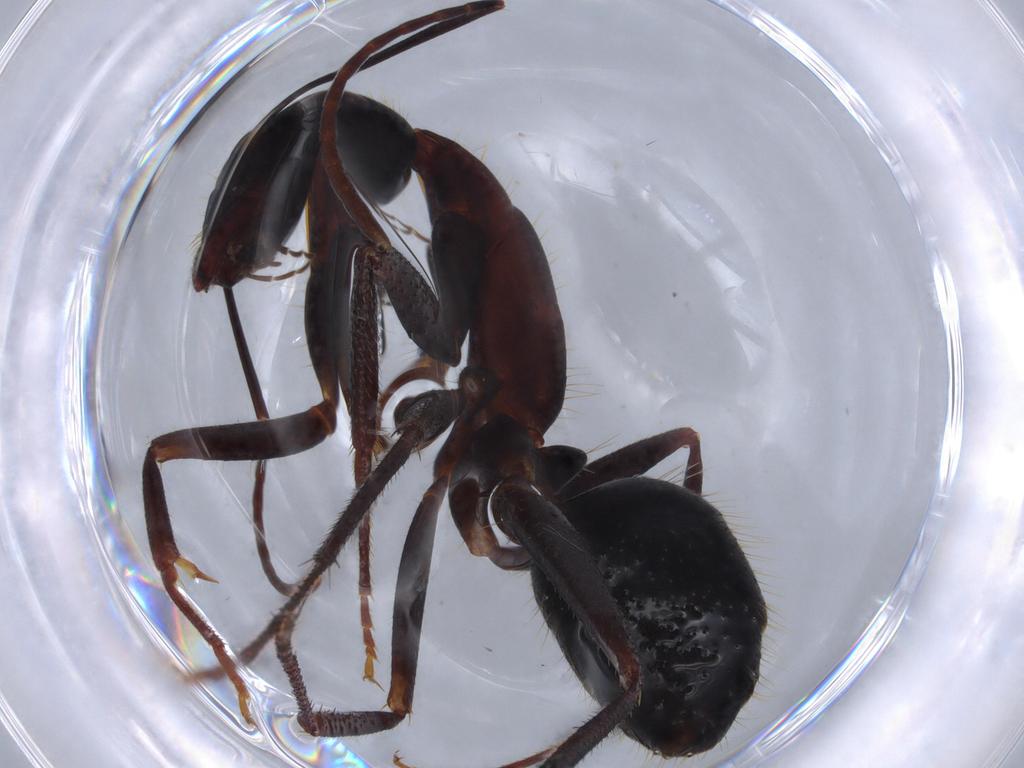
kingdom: Animalia
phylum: Arthropoda
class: Insecta
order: Hymenoptera
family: Formicidae
